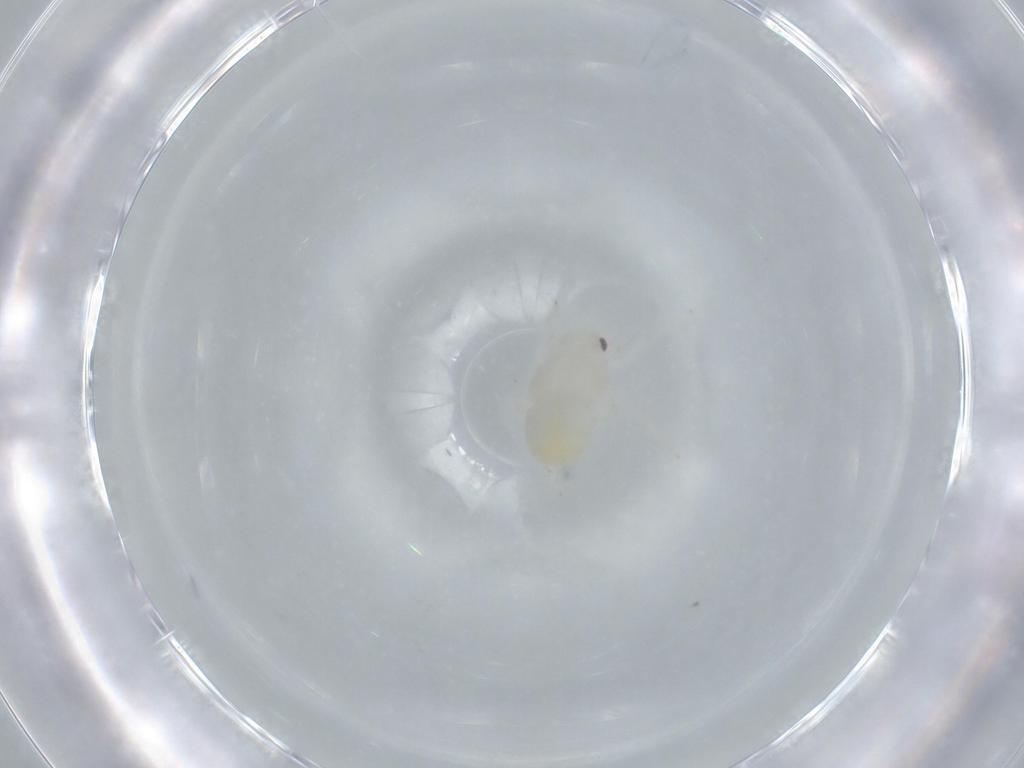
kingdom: Animalia
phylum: Arthropoda
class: Insecta
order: Hemiptera
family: Flatidae
